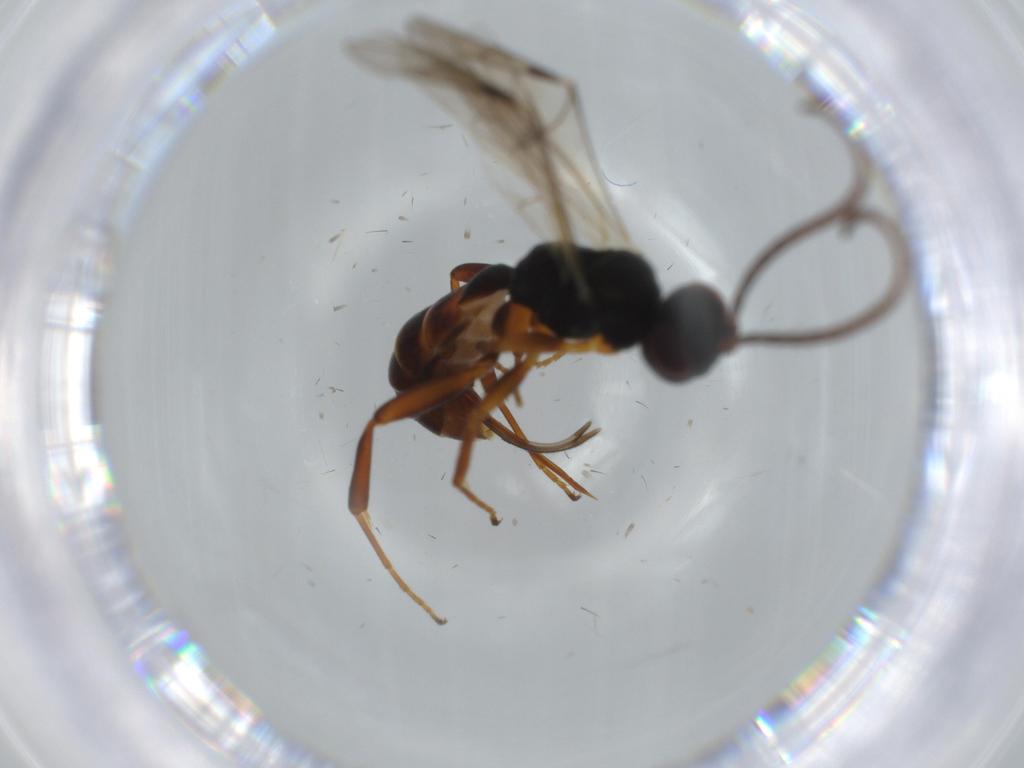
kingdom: Animalia
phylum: Arthropoda
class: Insecta
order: Hymenoptera
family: Ichneumonidae
